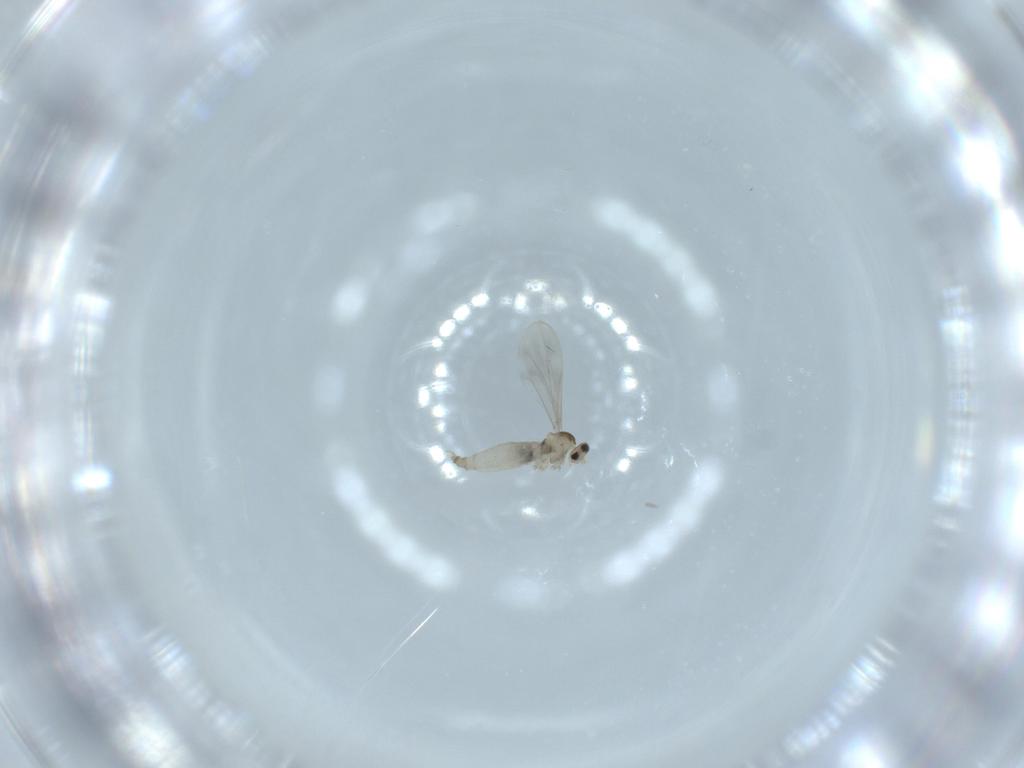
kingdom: Animalia
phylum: Arthropoda
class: Insecta
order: Diptera
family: Cecidomyiidae
